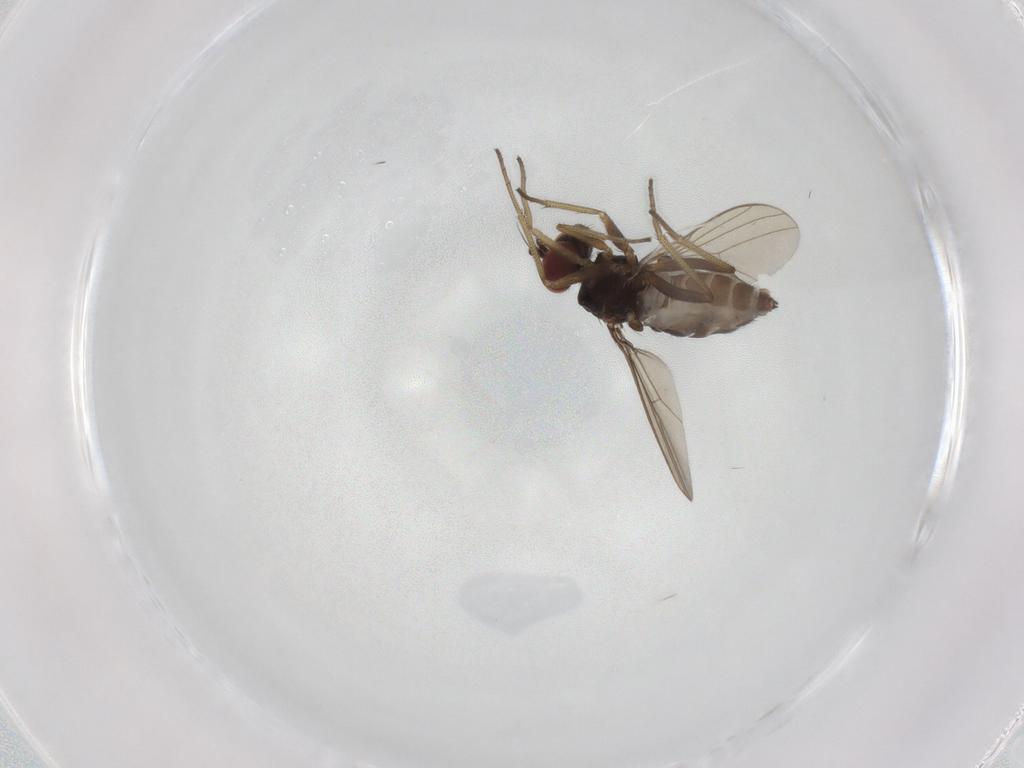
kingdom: Animalia
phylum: Arthropoda
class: Insecta
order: Diptera
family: Dolichopodidae
